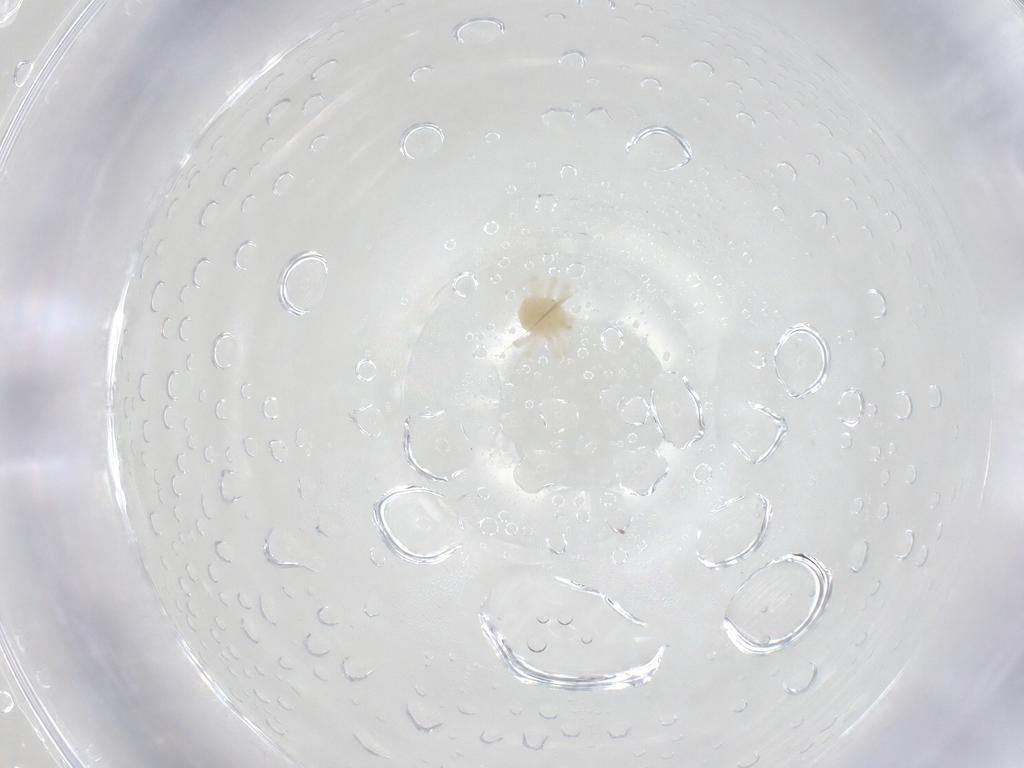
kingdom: Animalia
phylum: Arthropoda
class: Arachnida
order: Trombidiformes
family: Anystidae
